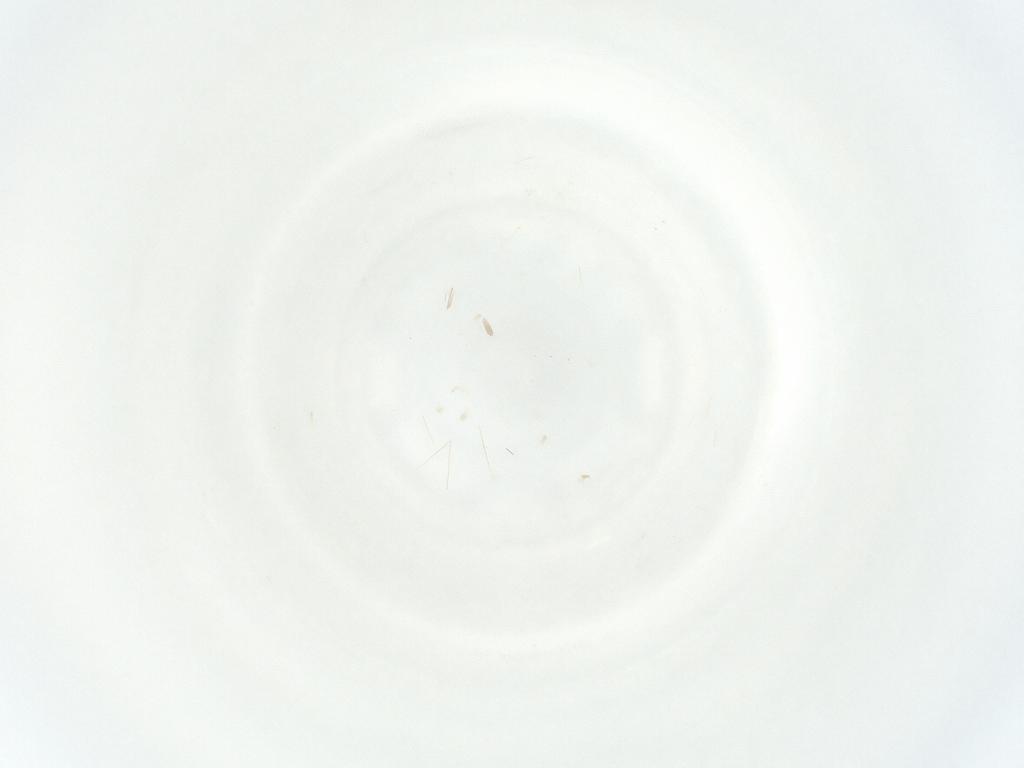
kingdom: Animalia
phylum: Arthropoda
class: Insecta
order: Thysanoptera
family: Thripidae
